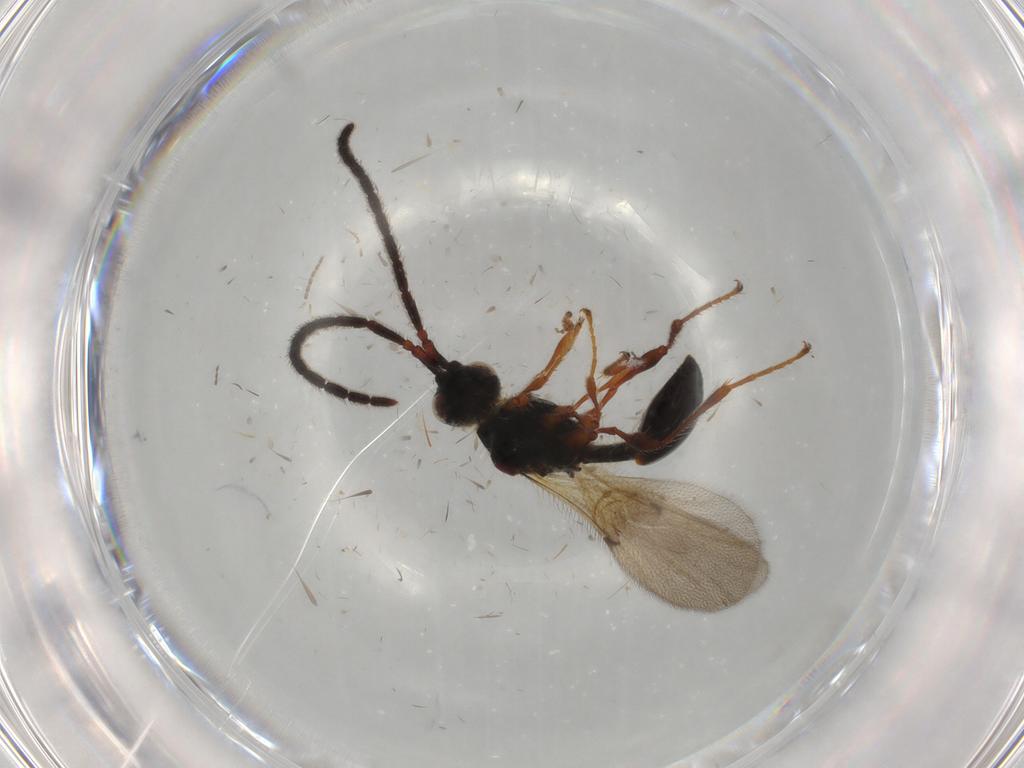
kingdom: Animalia
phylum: Arthropoda
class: Insecta
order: Hymenoptera
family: Diapriidae
